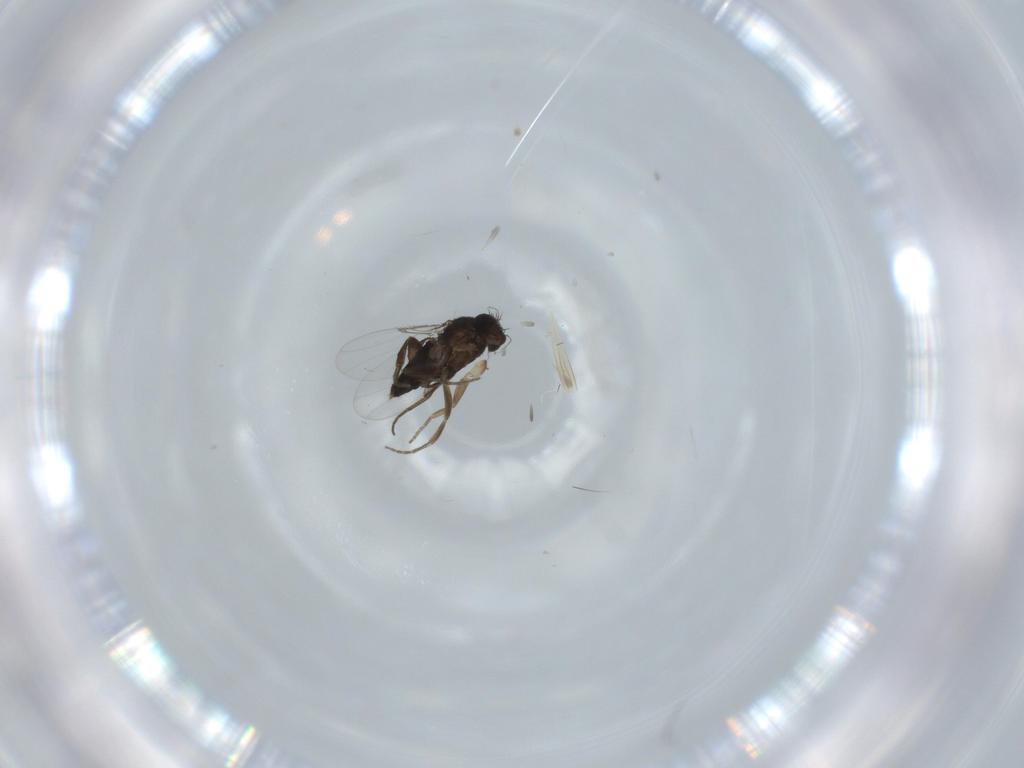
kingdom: Animalia
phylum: Arthropoda
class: Insecta
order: Diptera
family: Phoridae
